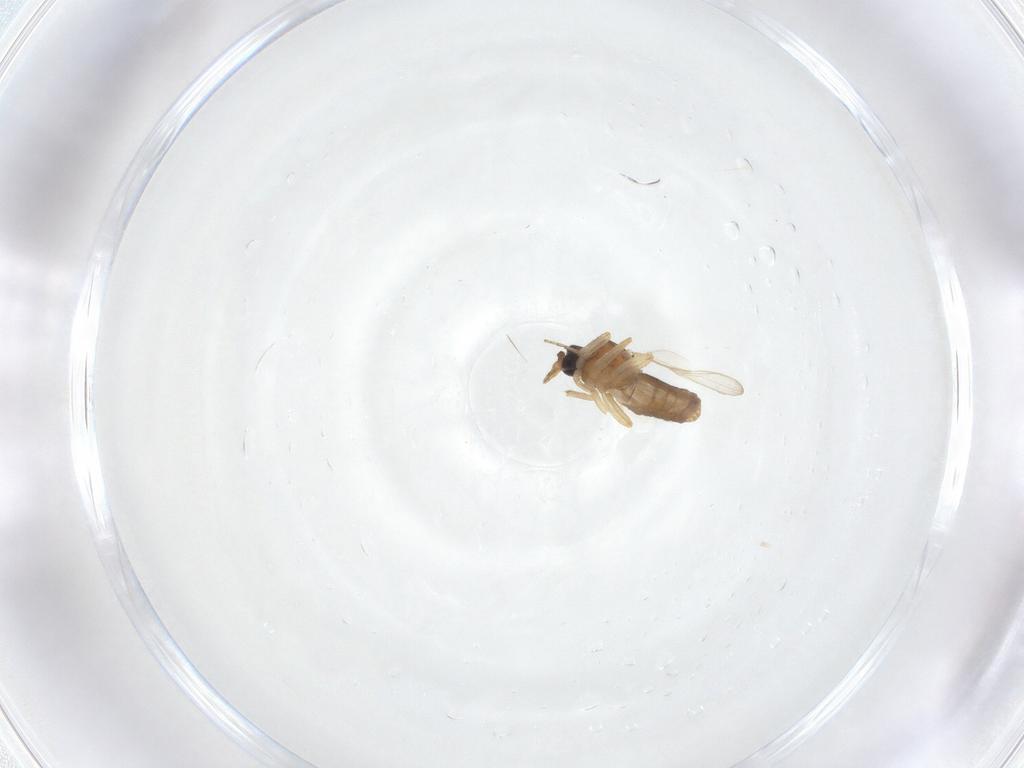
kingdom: Animalia
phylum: Arthropoda
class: Insecta
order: Diptera
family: Ceratopogonidae
